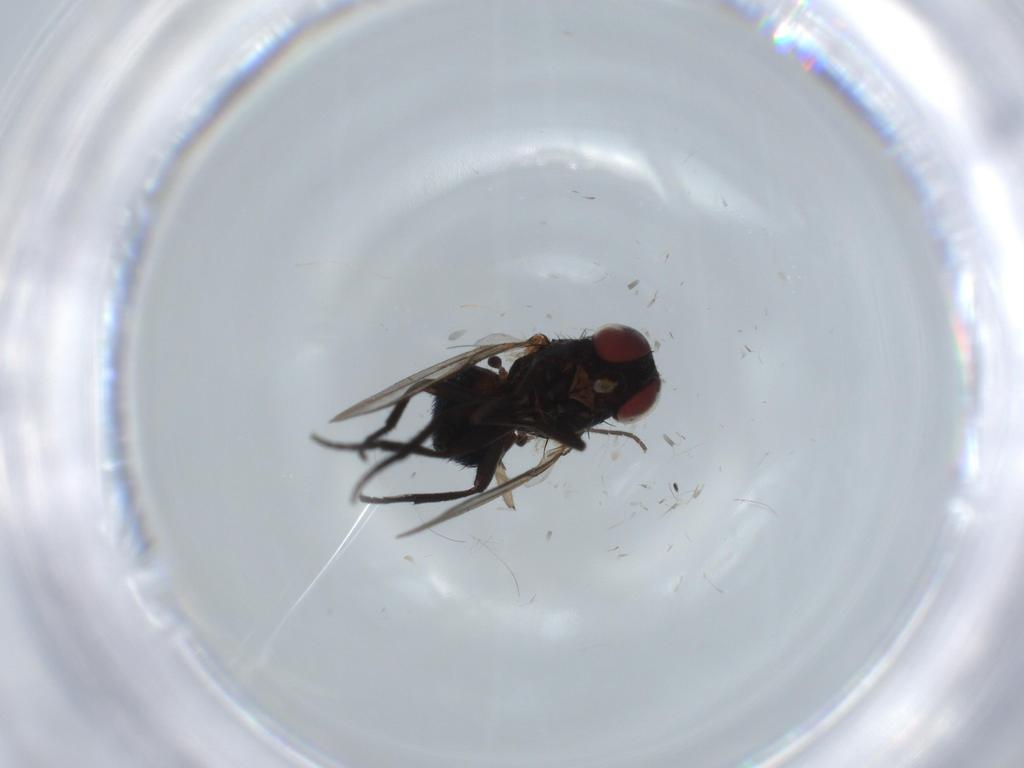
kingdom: Animalia
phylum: Arthropoda
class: Insecta
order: Diptera
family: Agromyzidae
